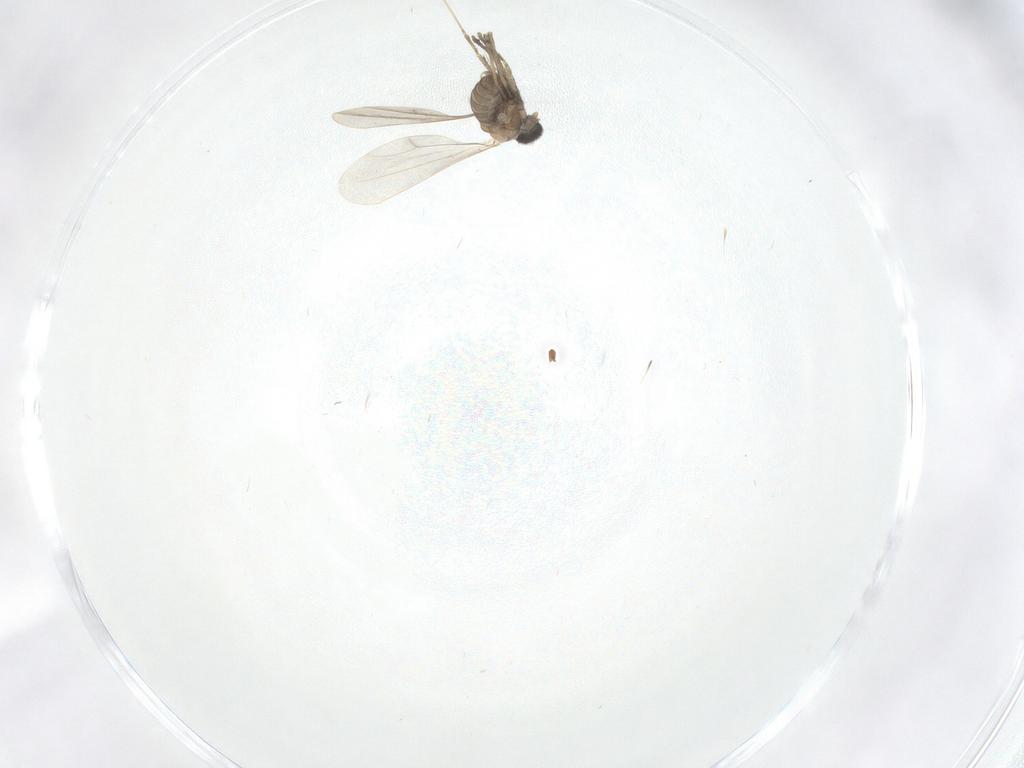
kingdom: Animalia
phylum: Arthropoda
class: Insecta
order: Diptera
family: Cecidomyiidae
